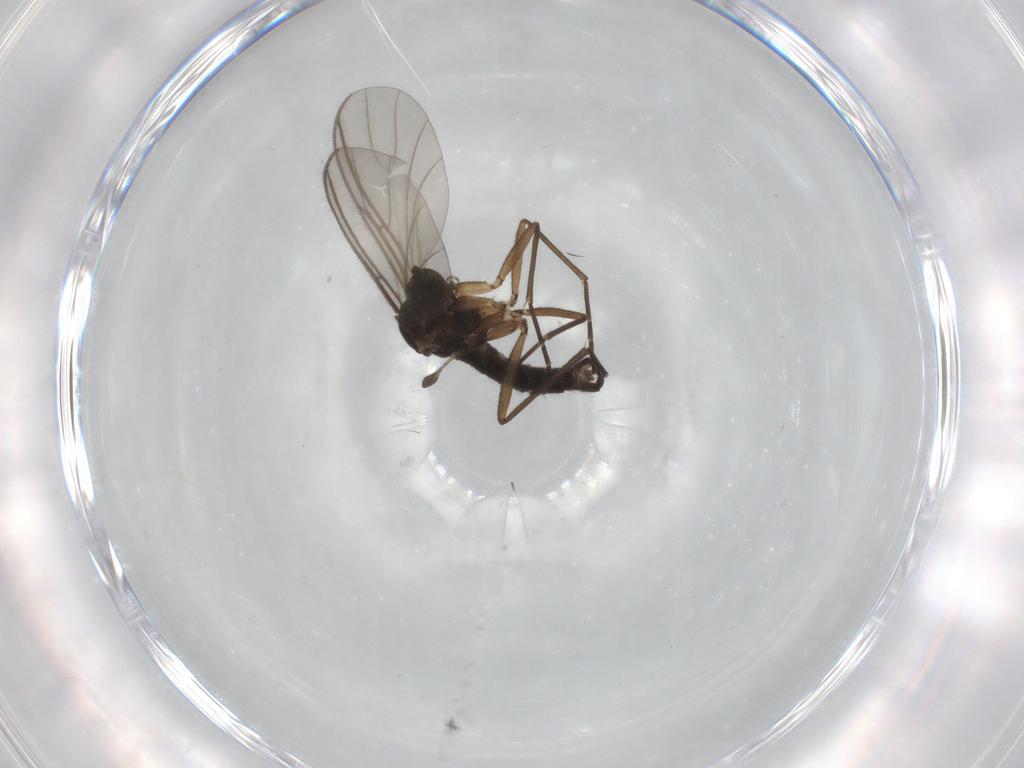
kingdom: Animalia
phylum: Arthropoda
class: Insecta
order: Diptera
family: Sciaridae
